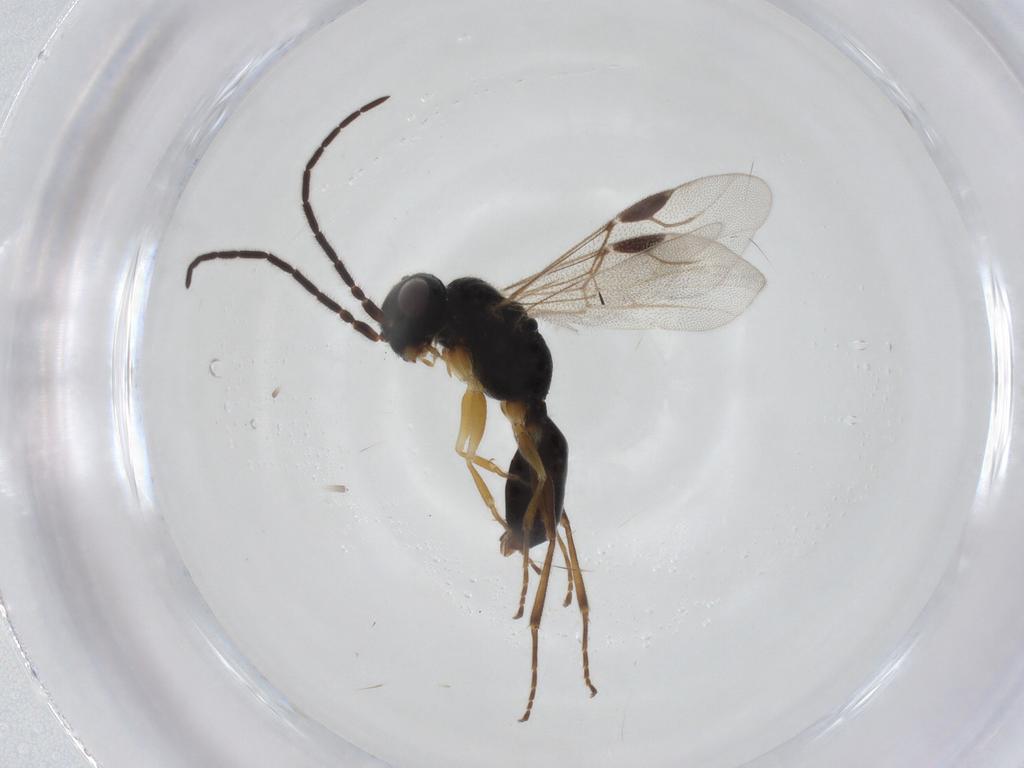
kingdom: Animalia
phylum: Arthropoda
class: Insecta
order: Hymenoptera
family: Dryinidae
